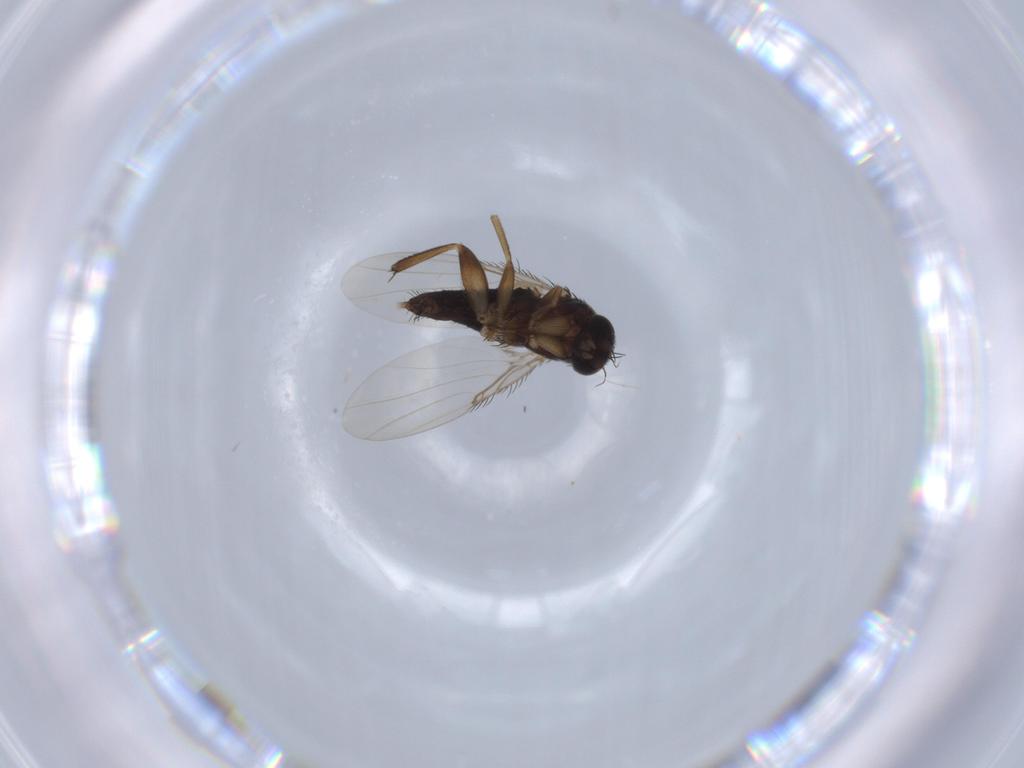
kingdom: Animalia
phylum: Arthropoda
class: Insecta
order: Diptera
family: Phoridae
